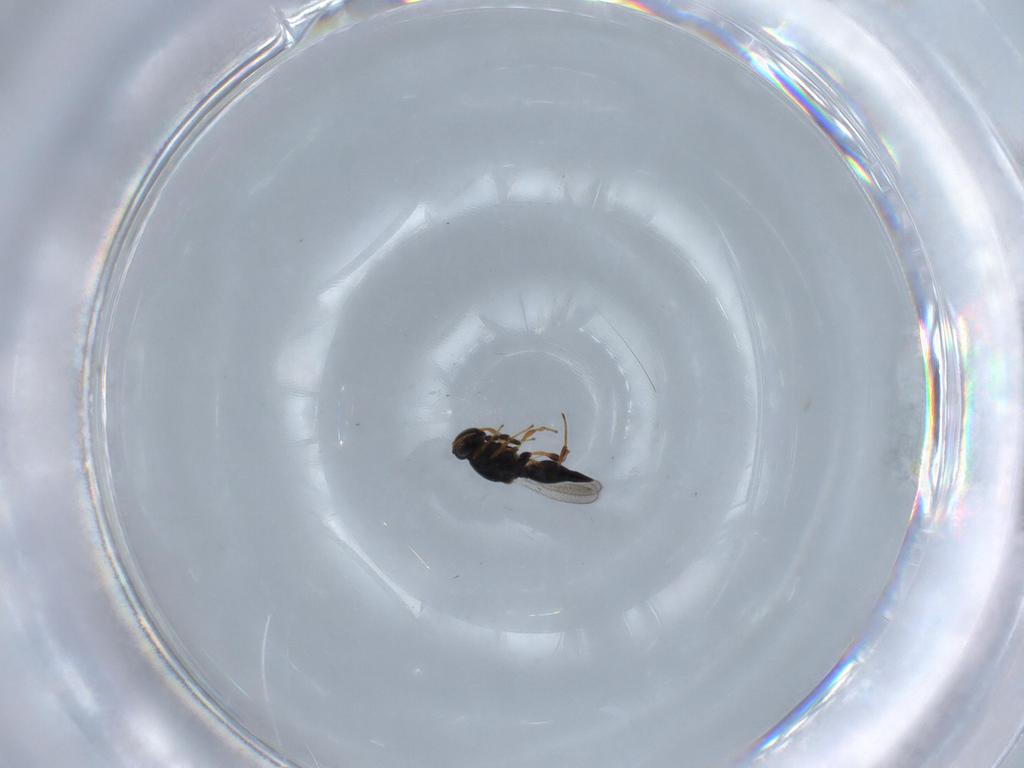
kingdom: Animalia
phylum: Arthropoda
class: Insecta
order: Hymenoptera
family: Platygastridae
